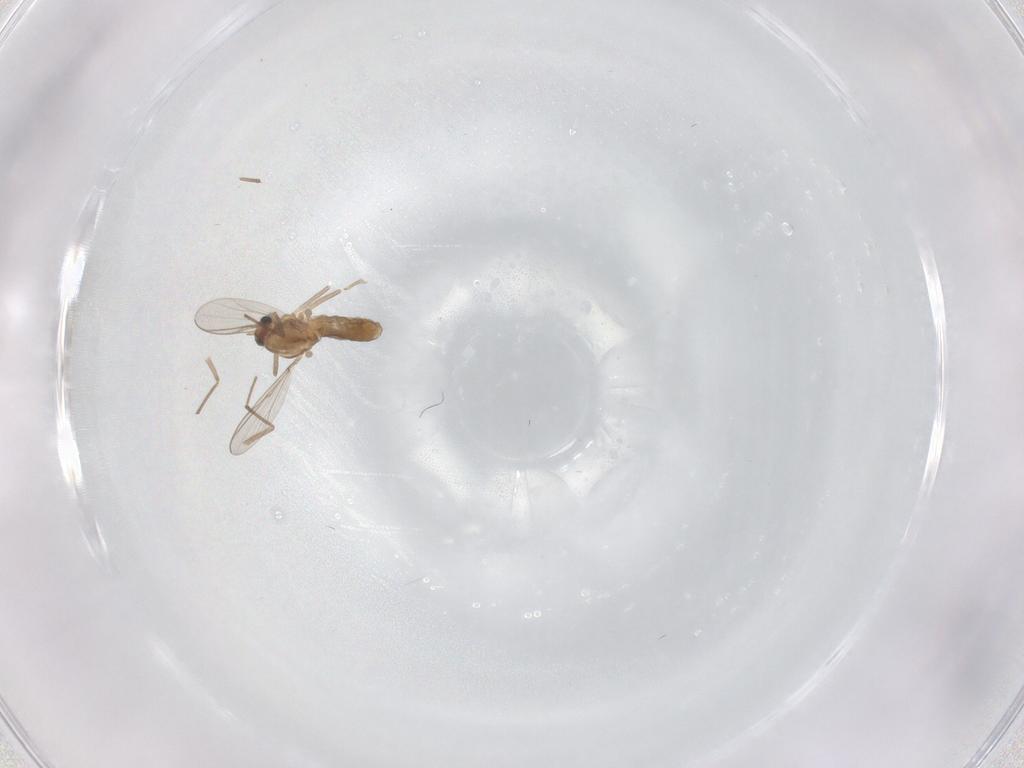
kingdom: Animalia
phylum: Arthropoda
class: Insecta
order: Diptera
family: Chironomidae
